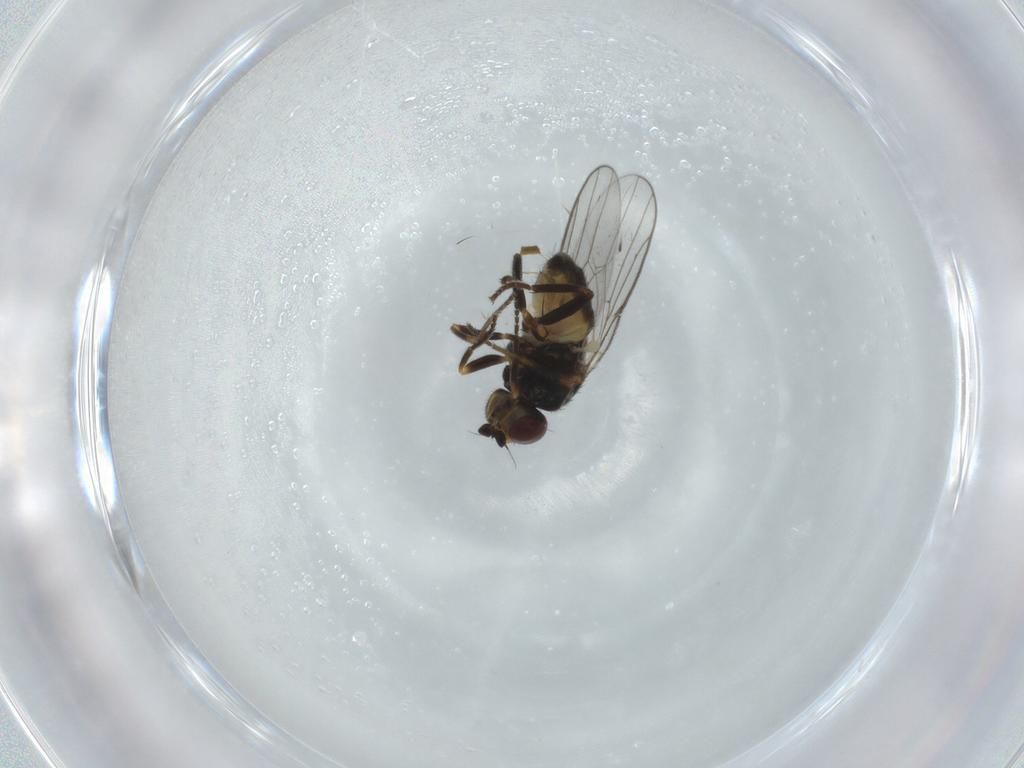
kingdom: Animalia
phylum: Arthropoda
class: Insecta
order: Diptera
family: Chloropidae
